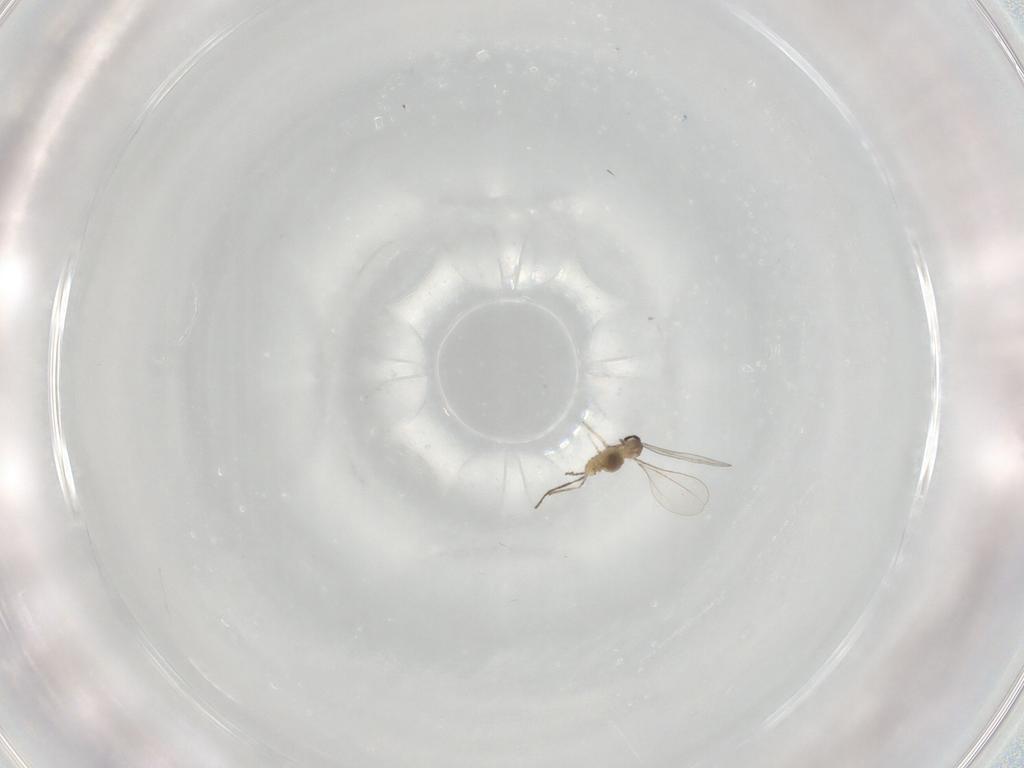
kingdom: Animalia
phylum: Arthropoda
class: Insecta
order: Diptera
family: Cecidomyiidae
